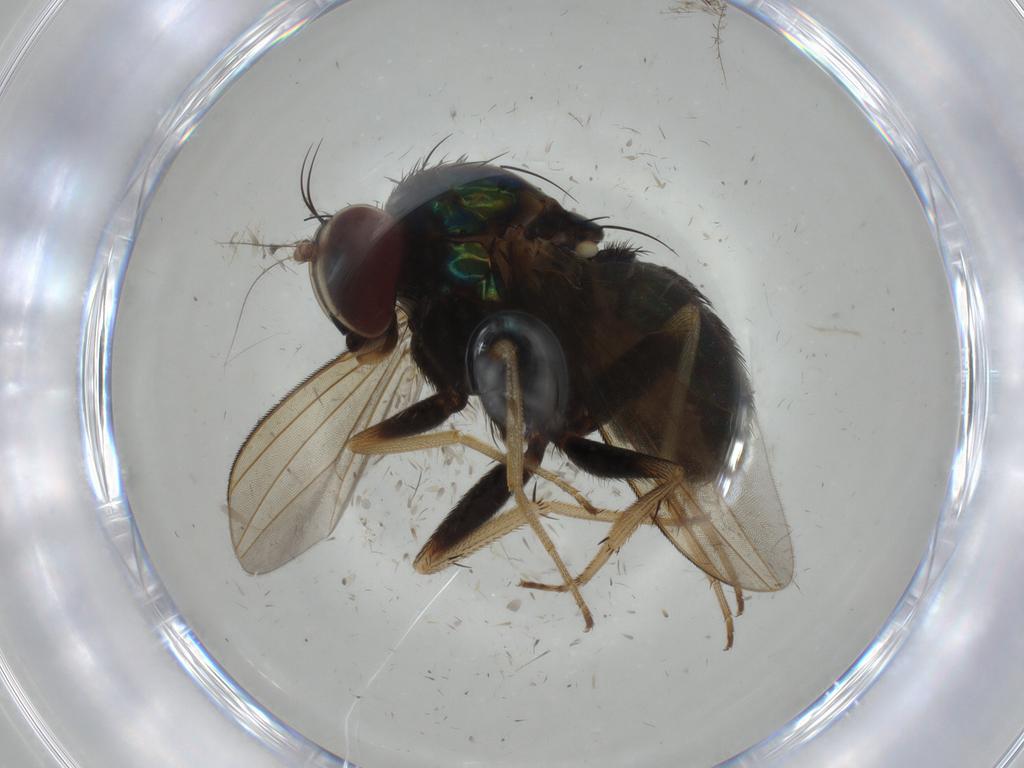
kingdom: Animalia
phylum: Arthropoda
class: Insecta
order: Diptera
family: Dolichopodidae
